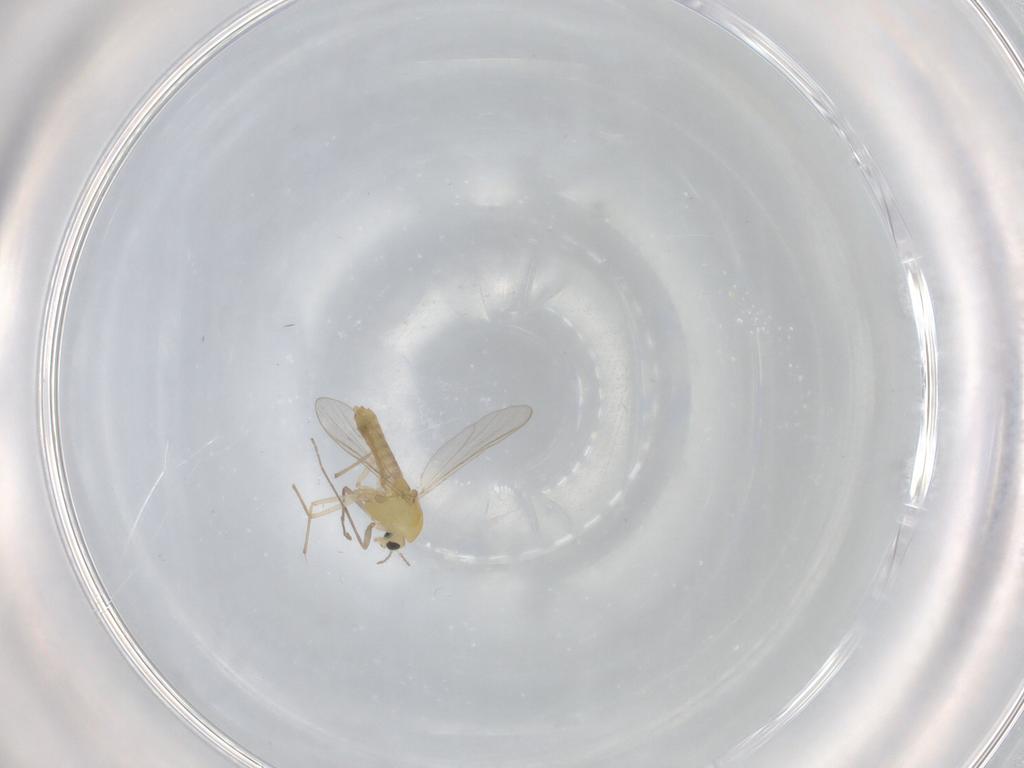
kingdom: Animalia
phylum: Arthropoda
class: Insecta
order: Diptera
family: Chironomidae
